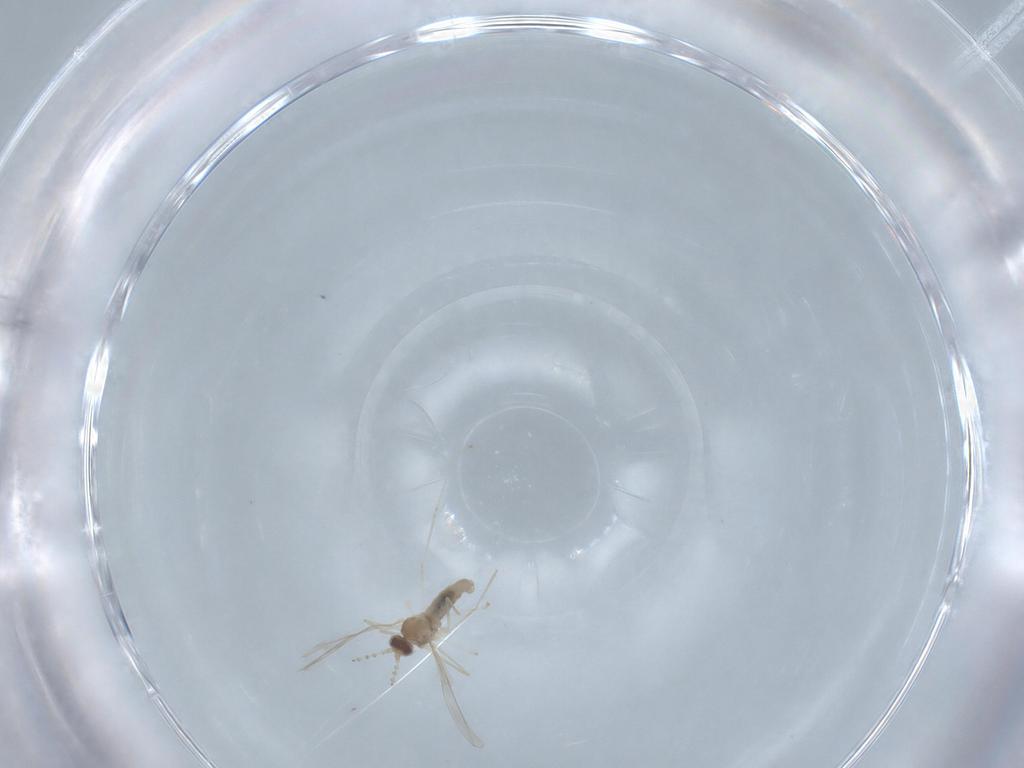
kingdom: Animalia
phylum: Arthropoda
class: Insecta
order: Diptera
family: Cecidomyiidae
